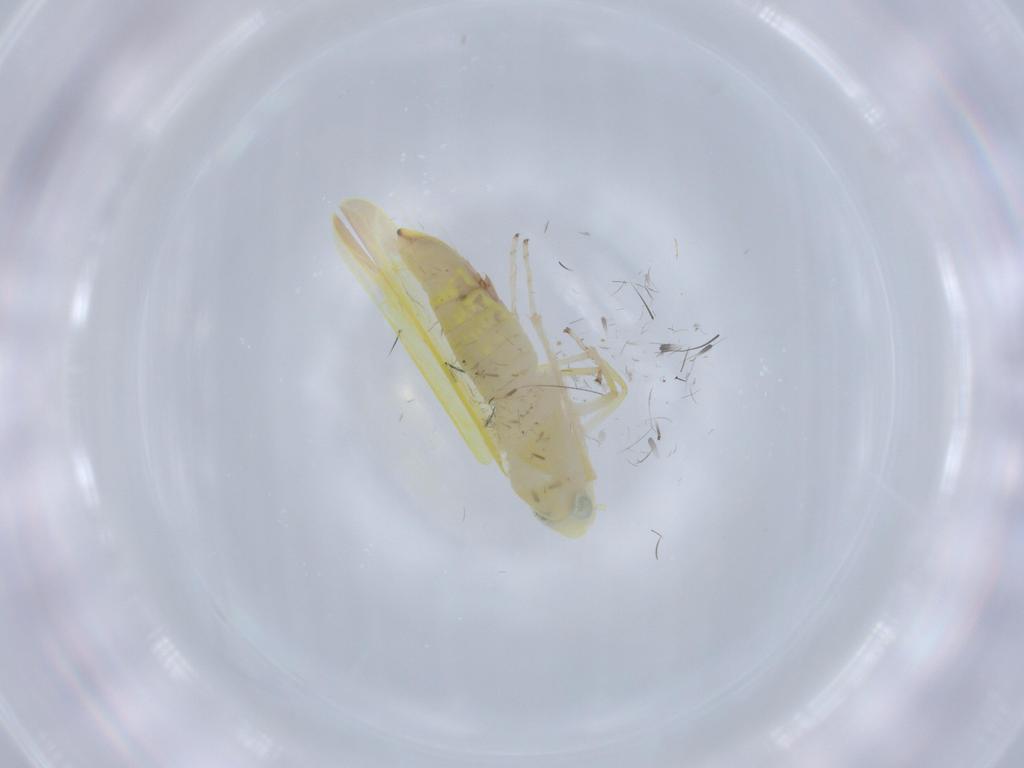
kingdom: Animalia
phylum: Arthropoda
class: Insecta
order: Hemiptera
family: Cicadellidae
